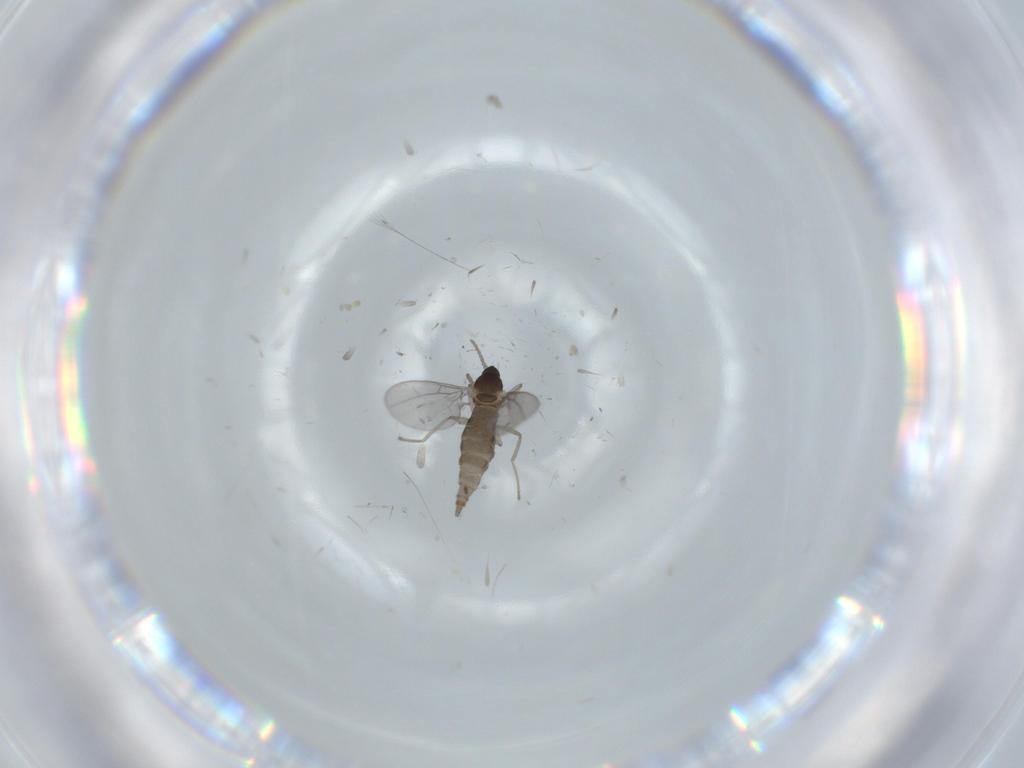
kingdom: Animalia
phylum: Arthropoda
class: Insecta
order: Diptera
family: Cecidomyiidae
